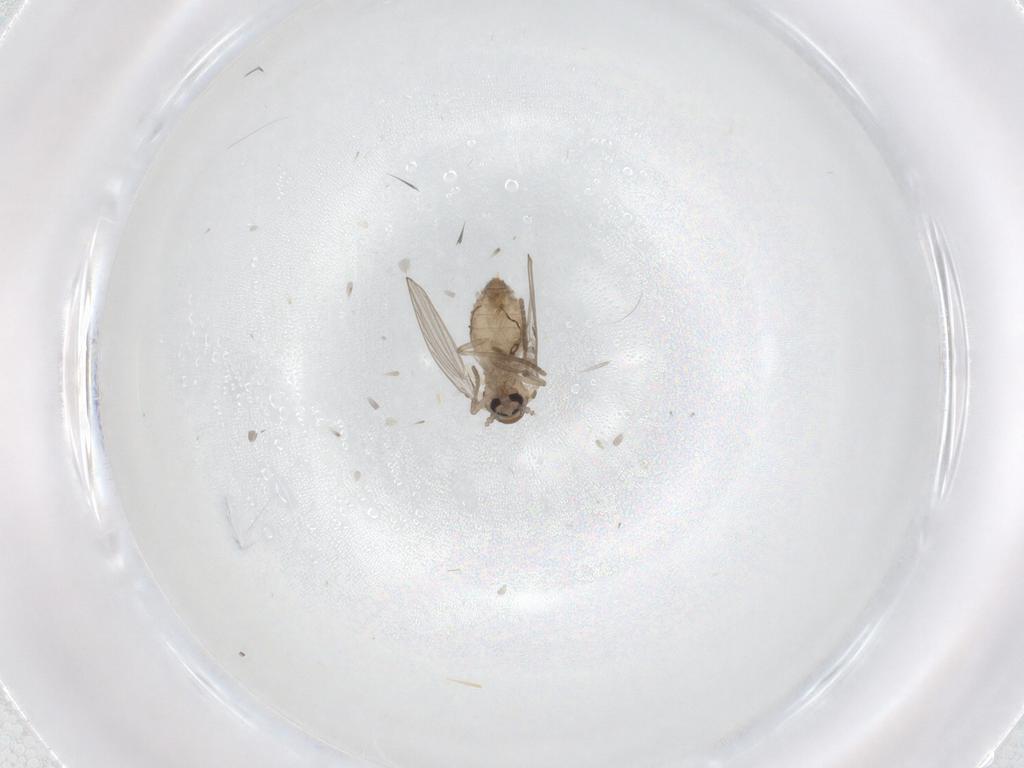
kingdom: Animalia
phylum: Arthropoda
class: Insecta
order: Diptera
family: Psychodidae
